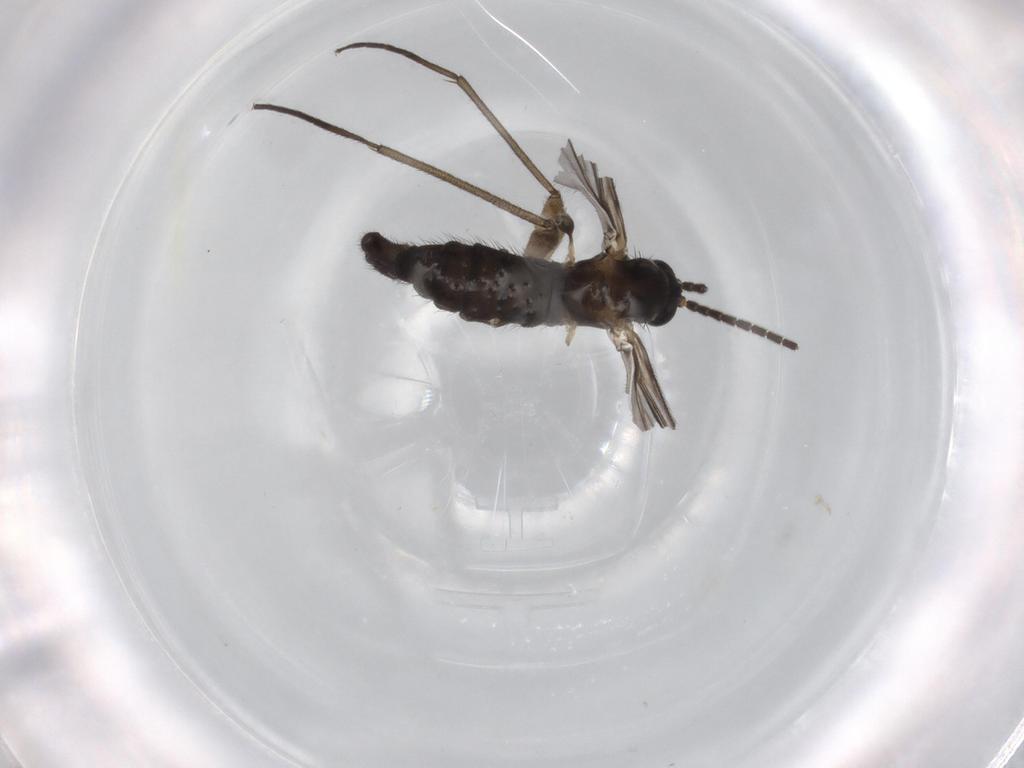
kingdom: Animalia
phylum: Arthropoda
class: Insecta
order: Diptera
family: Sciaridae
